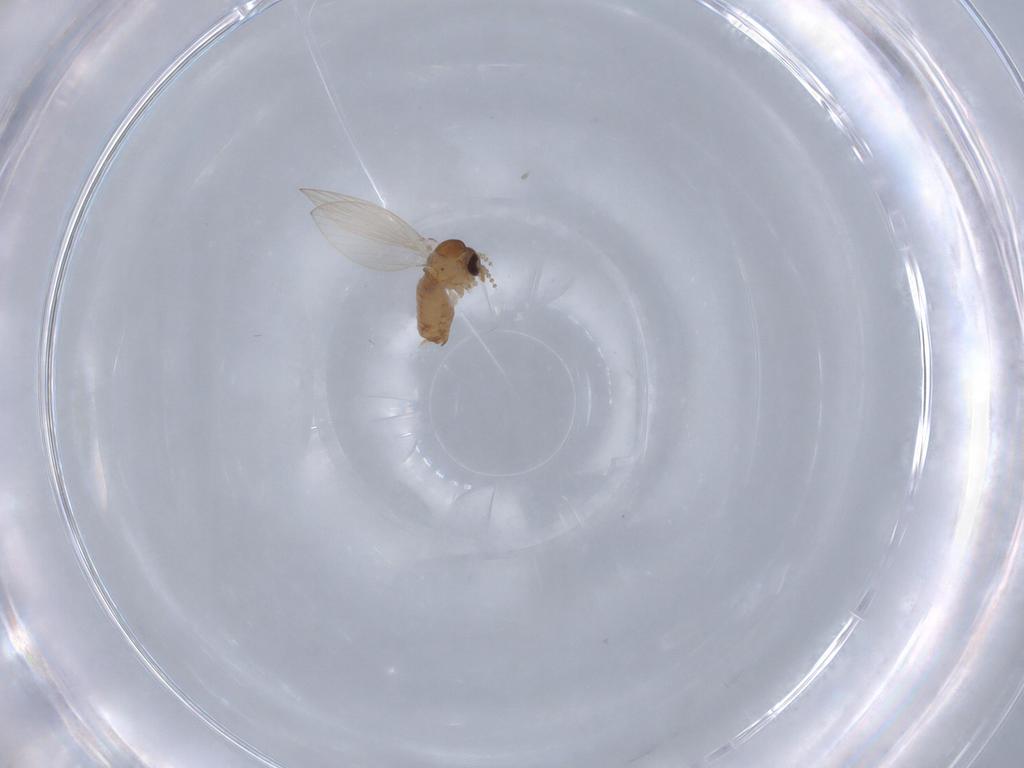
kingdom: Animalia
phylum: Arthropoda
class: Insecta
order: Diptera
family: Psychodidae
